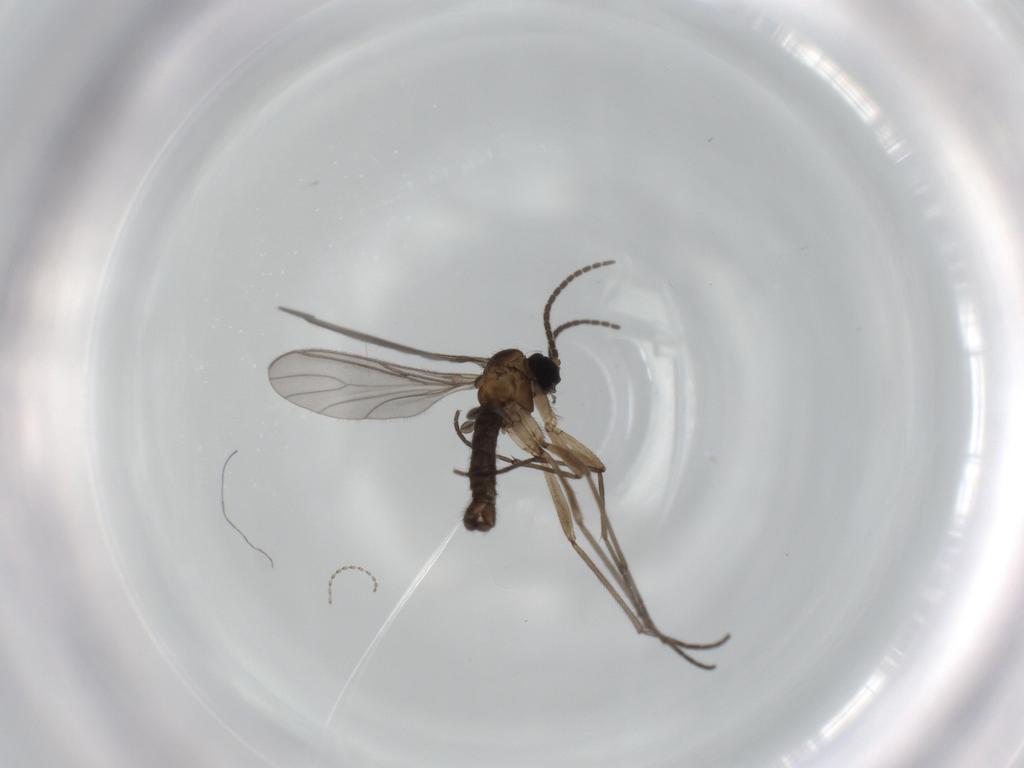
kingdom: Animalia
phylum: Arthropoda
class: Insecta
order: Diptera
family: Sciaridae
